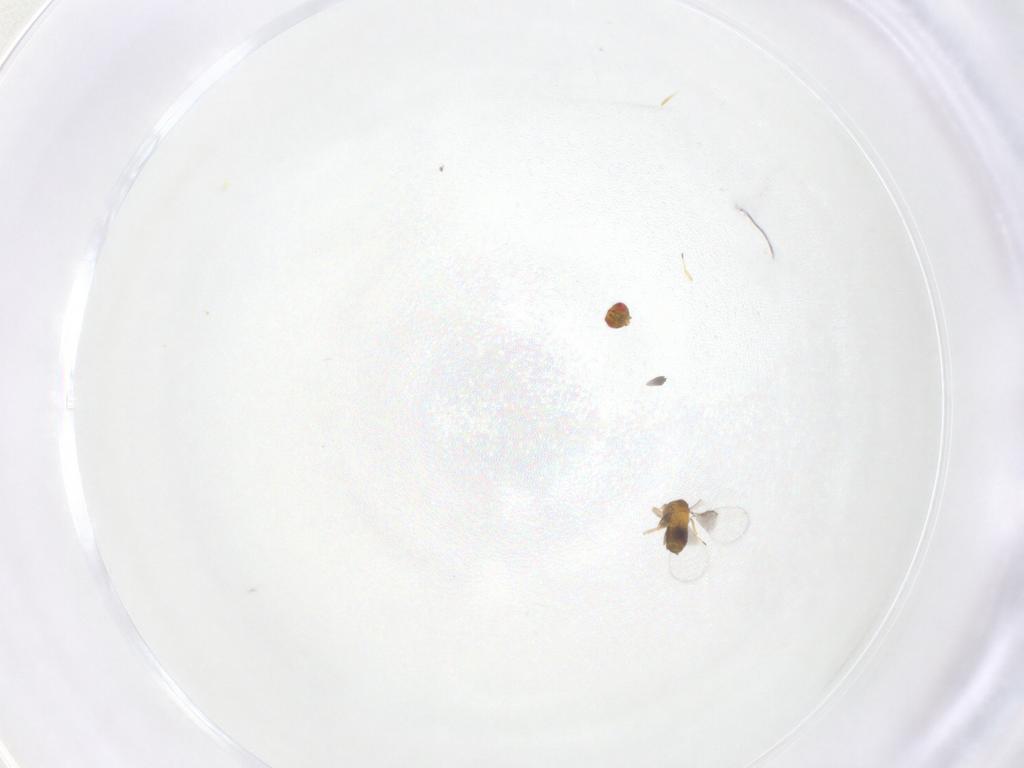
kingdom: Animalia
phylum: Arthropoda
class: Insecta
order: Hymenoptera
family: Trichogrammatidae
